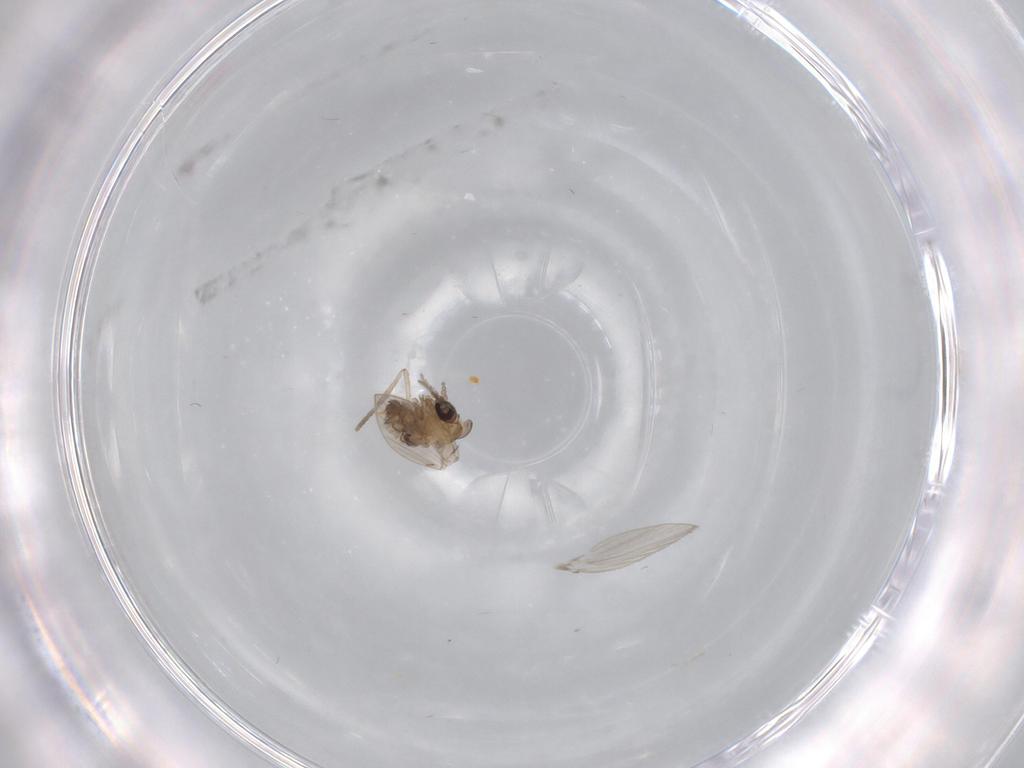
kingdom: Animalia
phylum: Arthropoda
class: Insecta
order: Diptera
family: Psychodidae
